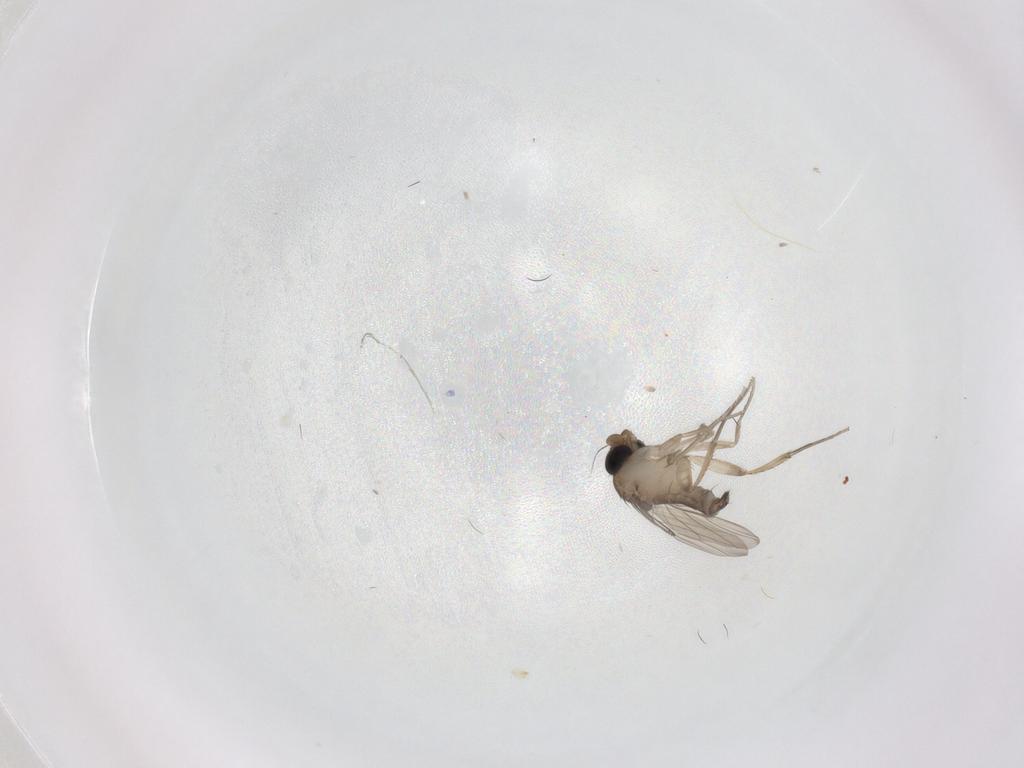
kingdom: Animalia
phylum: Arthropoda
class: Insecta
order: Diptera
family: Phoridae
